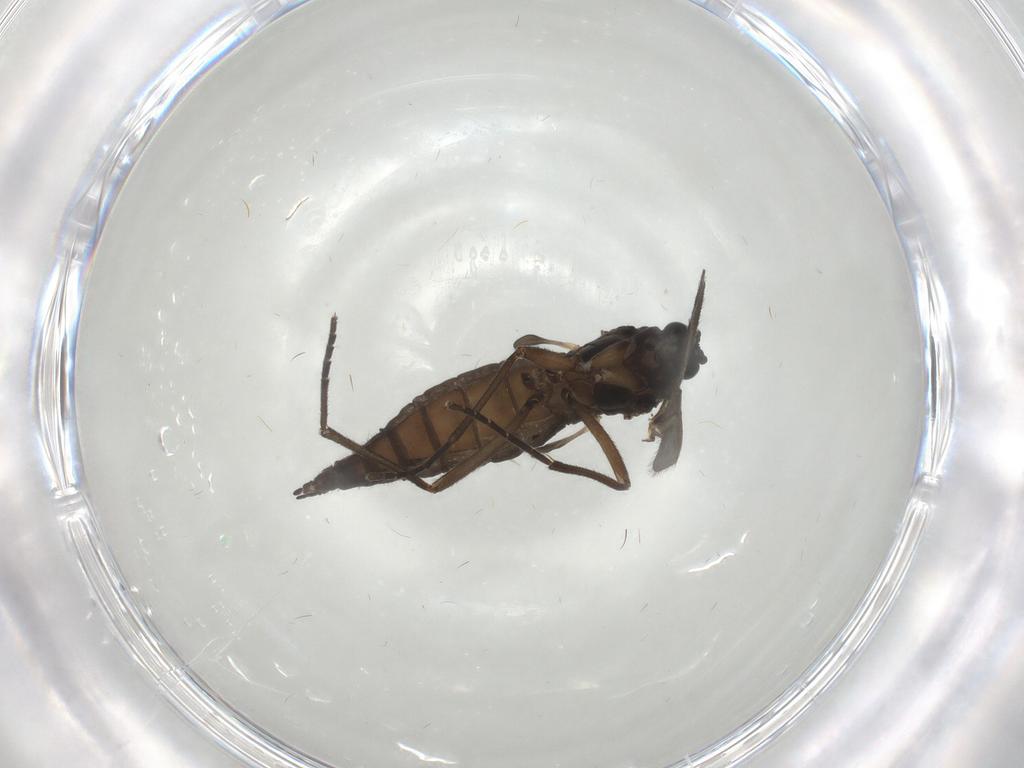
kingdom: Animalia
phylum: Arthropoda
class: Insecta
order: Diptera
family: Sciaridae
